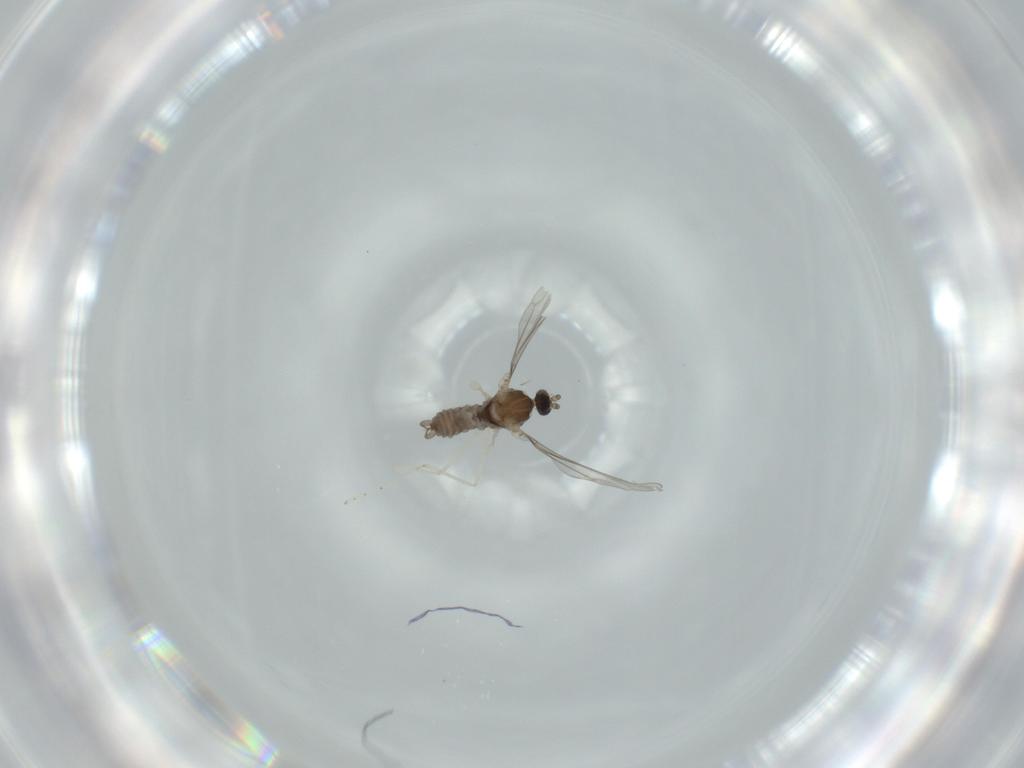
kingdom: Animalia
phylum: Arthropoda
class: Insecta
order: Diptera
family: Cecidomyiidae
